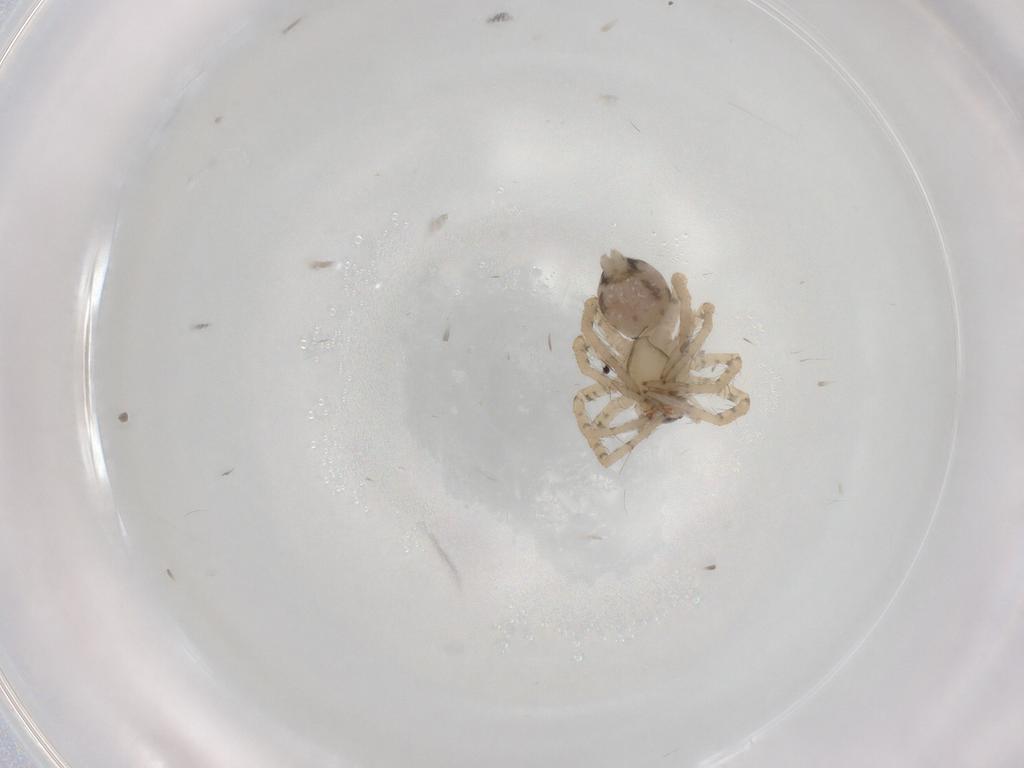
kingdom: Animalia
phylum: Arthropoda
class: Arachnida
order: Araneae
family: Amaurobiidae
